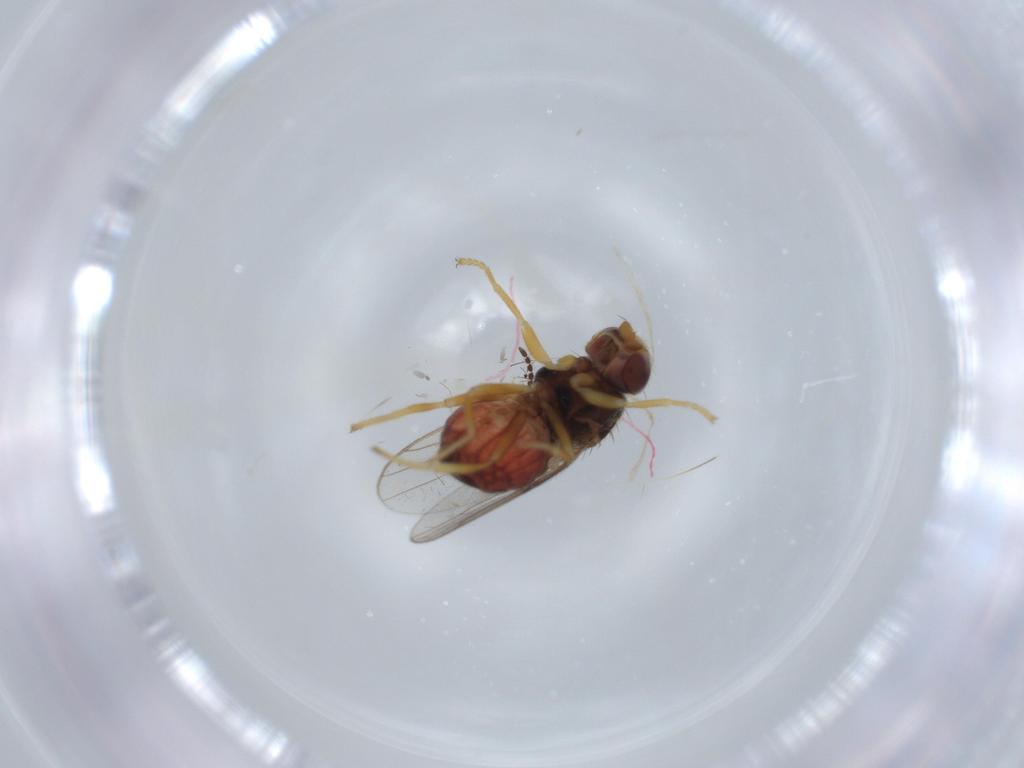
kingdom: Animalia
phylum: Arthropoda
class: Insecta
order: Diptera
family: Chloropidae
